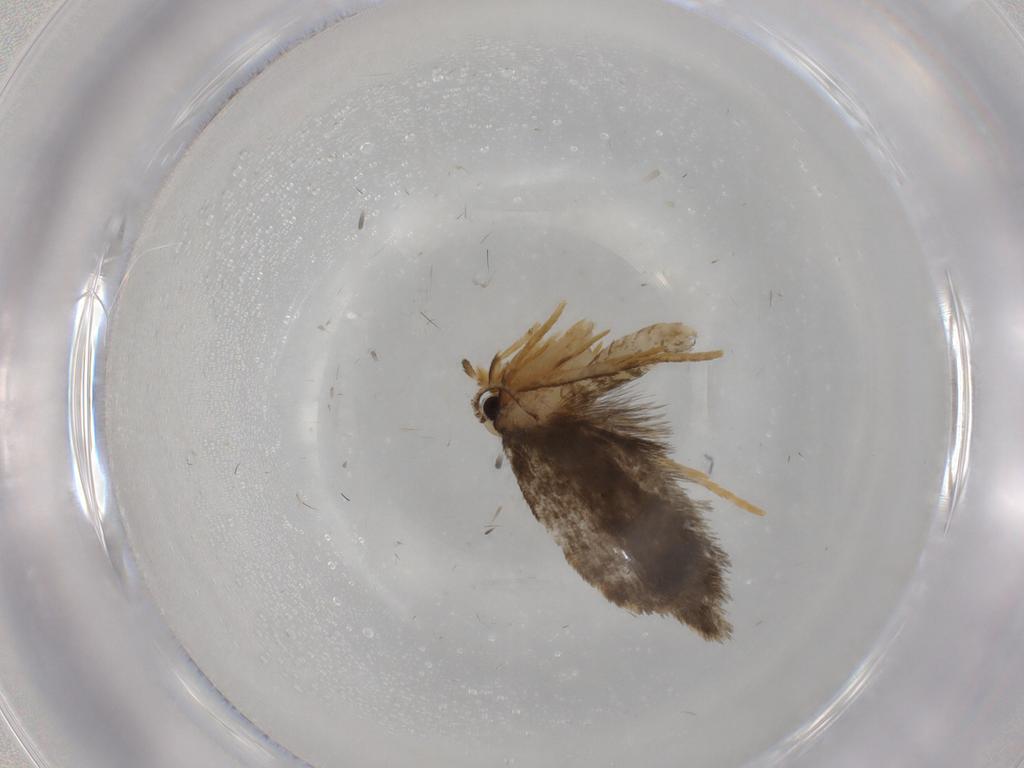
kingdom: Animalia
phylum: Arthropoda
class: Insecta
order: Lepidoptera
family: Psychidae
